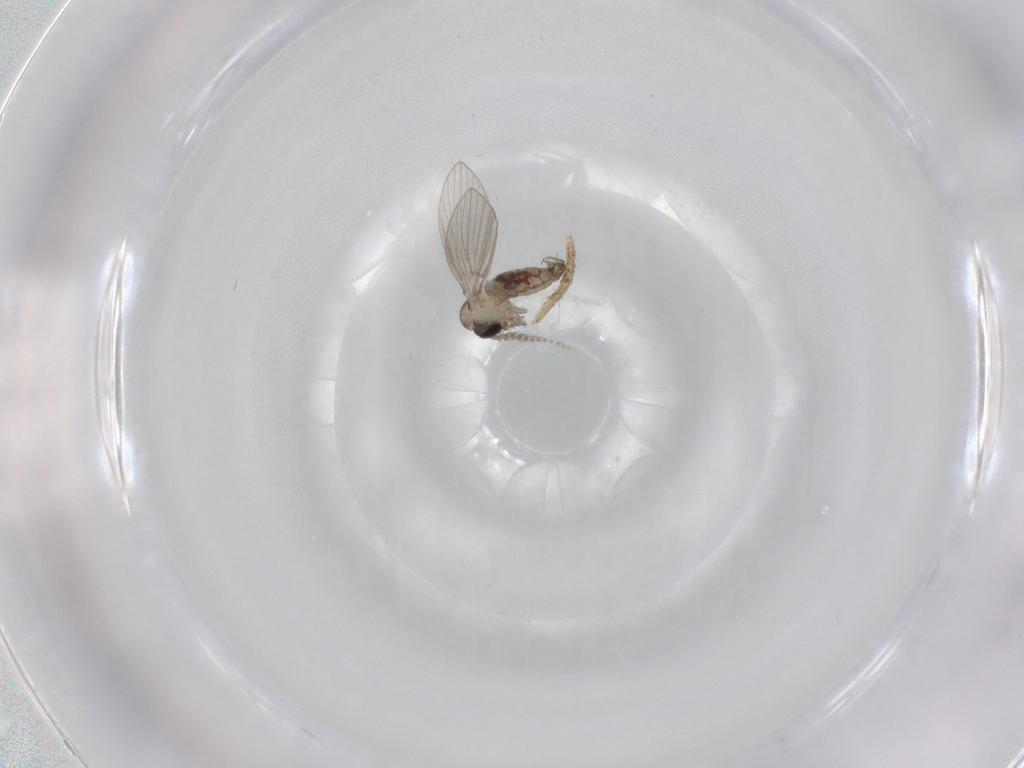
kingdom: Animalia
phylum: Arthropoda
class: Insecta
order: Diptera
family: Psychodidae
